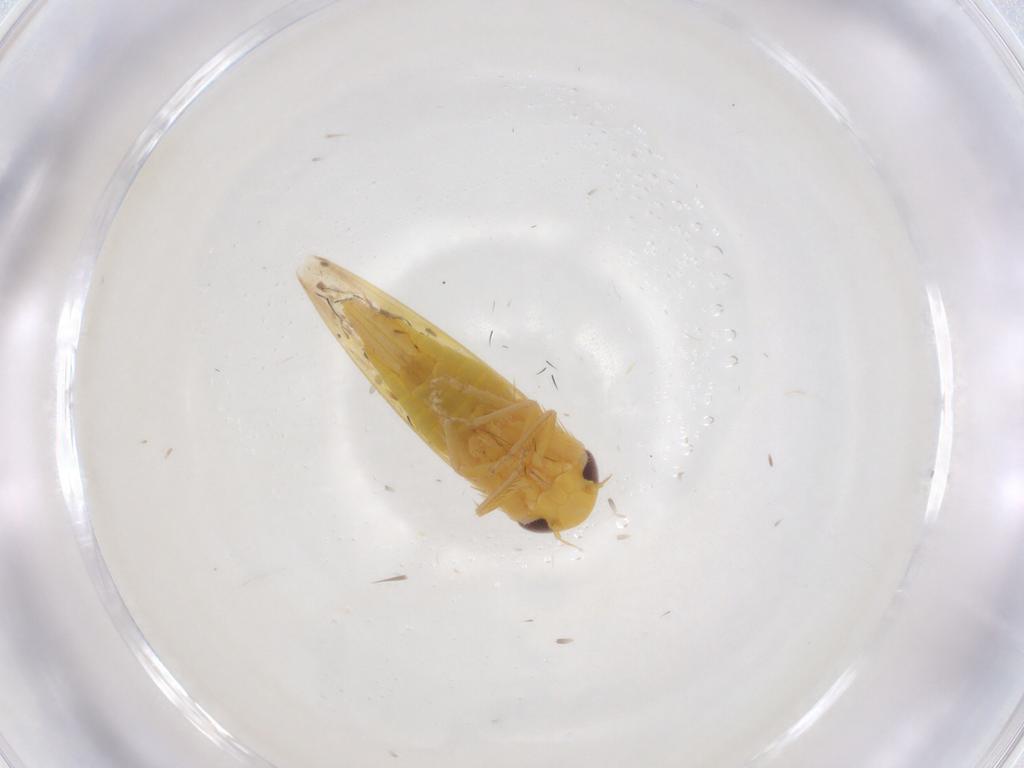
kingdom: Animalia
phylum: Arthropoda
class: Insecta
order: Hemiptera
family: Cicadellidae
